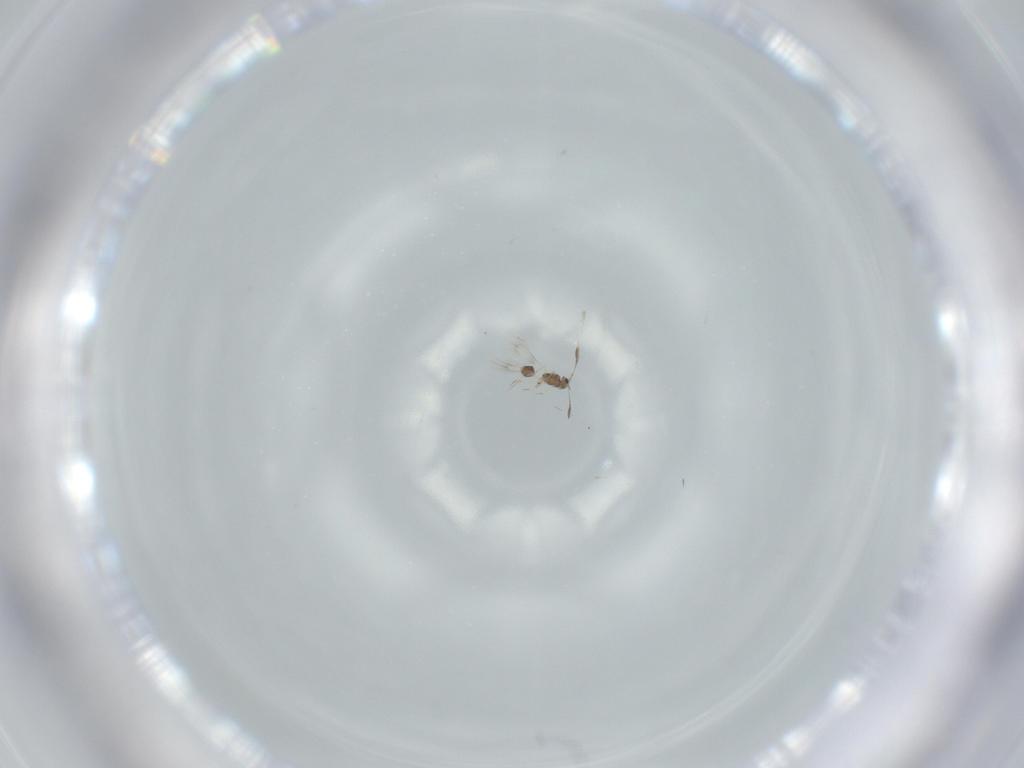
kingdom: Animalia
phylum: Arthropoda
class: Insecta
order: Hymenoptera
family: Mymarommatidae
